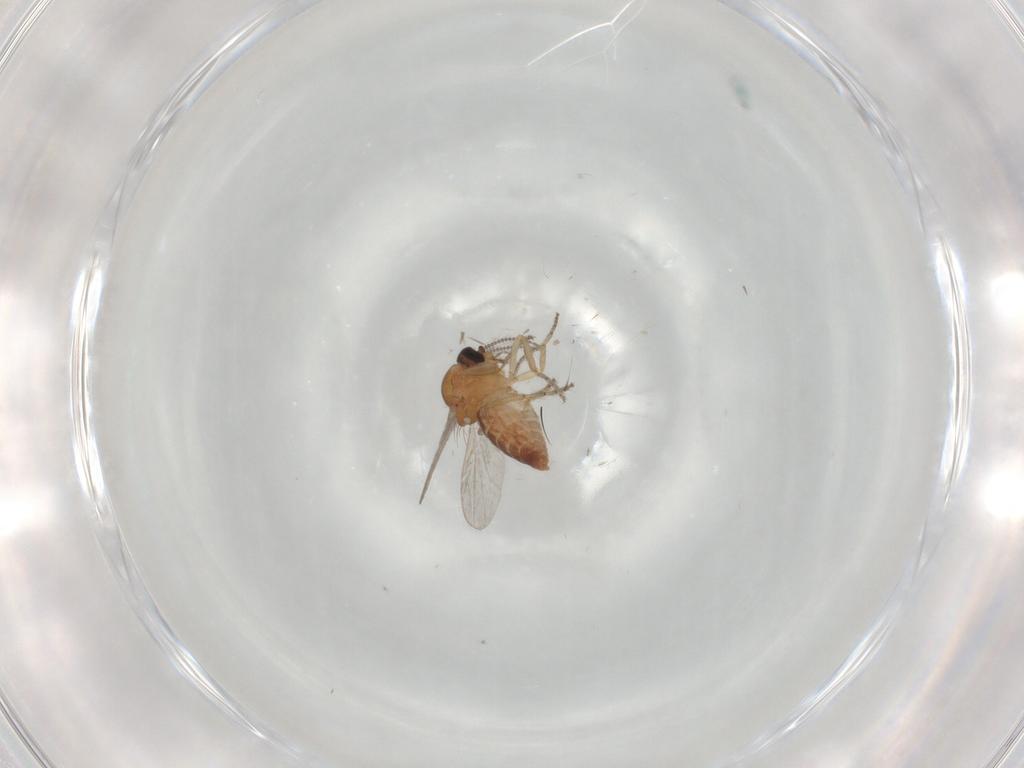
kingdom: Animalia
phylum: Arthropoda
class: Insecta
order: Diptera
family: Ceratopogonidae
